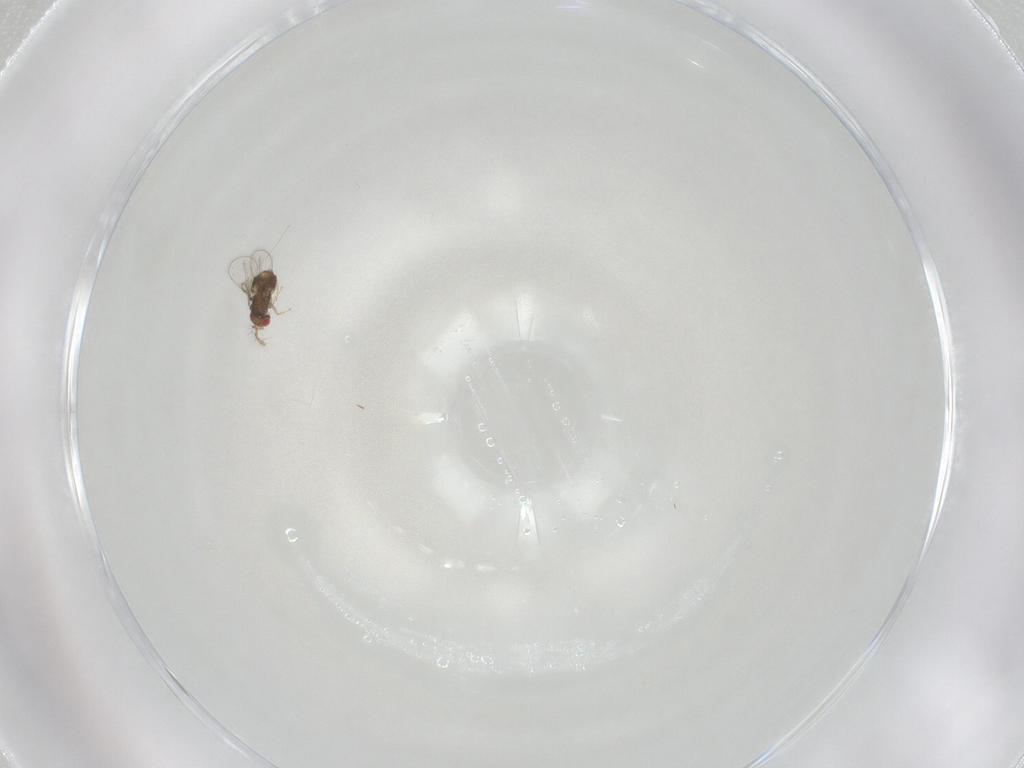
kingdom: Animalia
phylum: Arthropoda
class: Insecta
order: Hymenoptera
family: Trichogrammatidae
